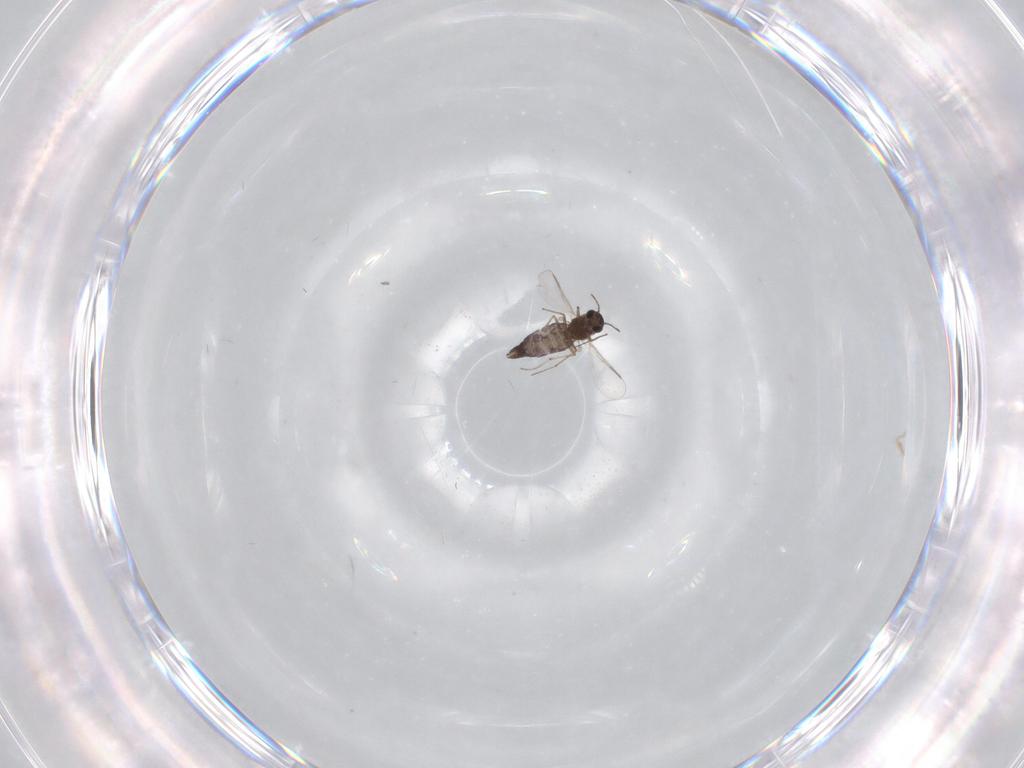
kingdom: Animalia
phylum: Arthropoda
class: Insecta
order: Diptera
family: Chironomidae
